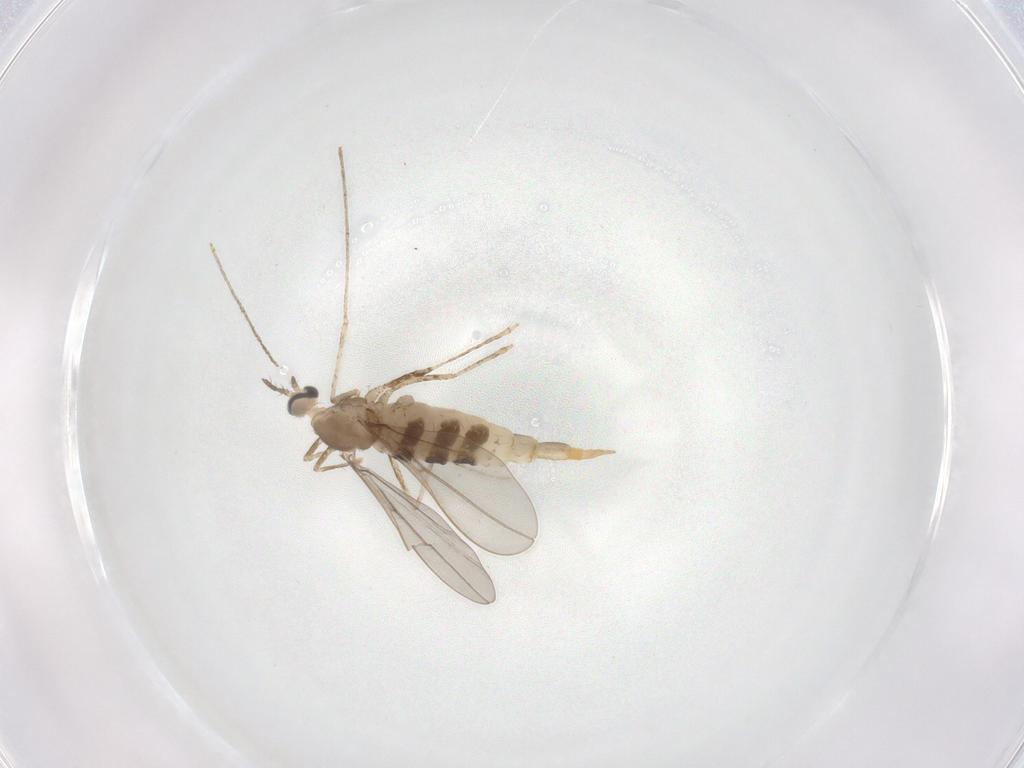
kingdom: Animalia
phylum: Arthropoda
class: Insecta
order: Diptera
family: Cecidomyiidae
